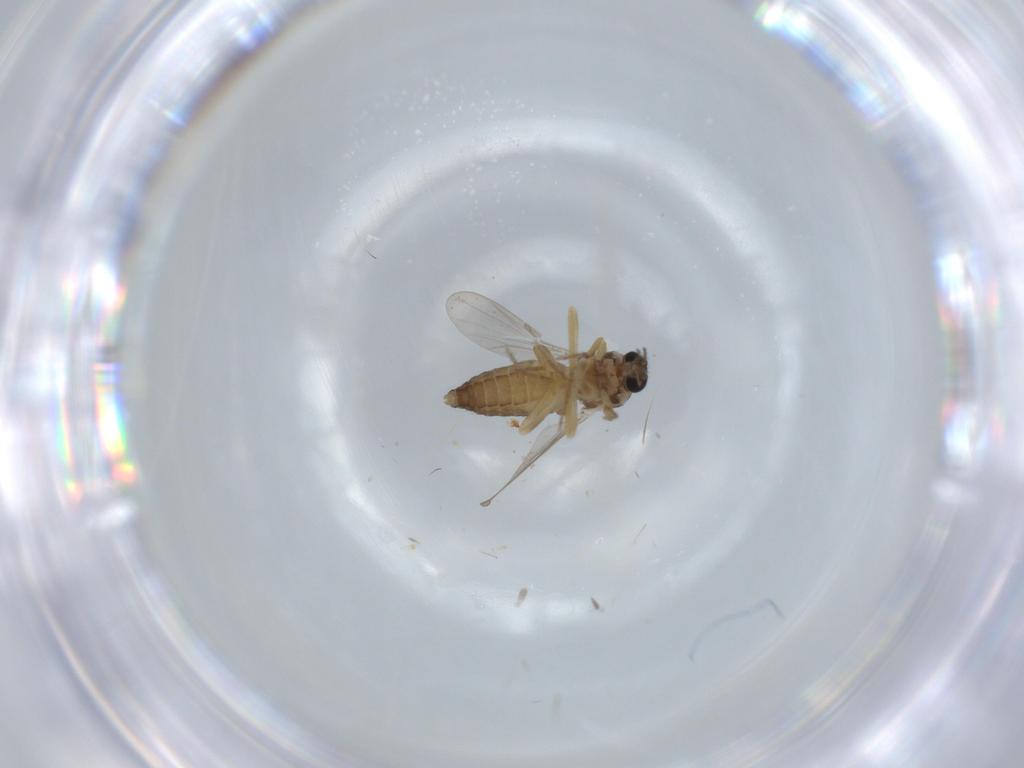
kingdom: Animalia
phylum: Arthropoda
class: Insecta
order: Diptera
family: Ceratopogonidae
